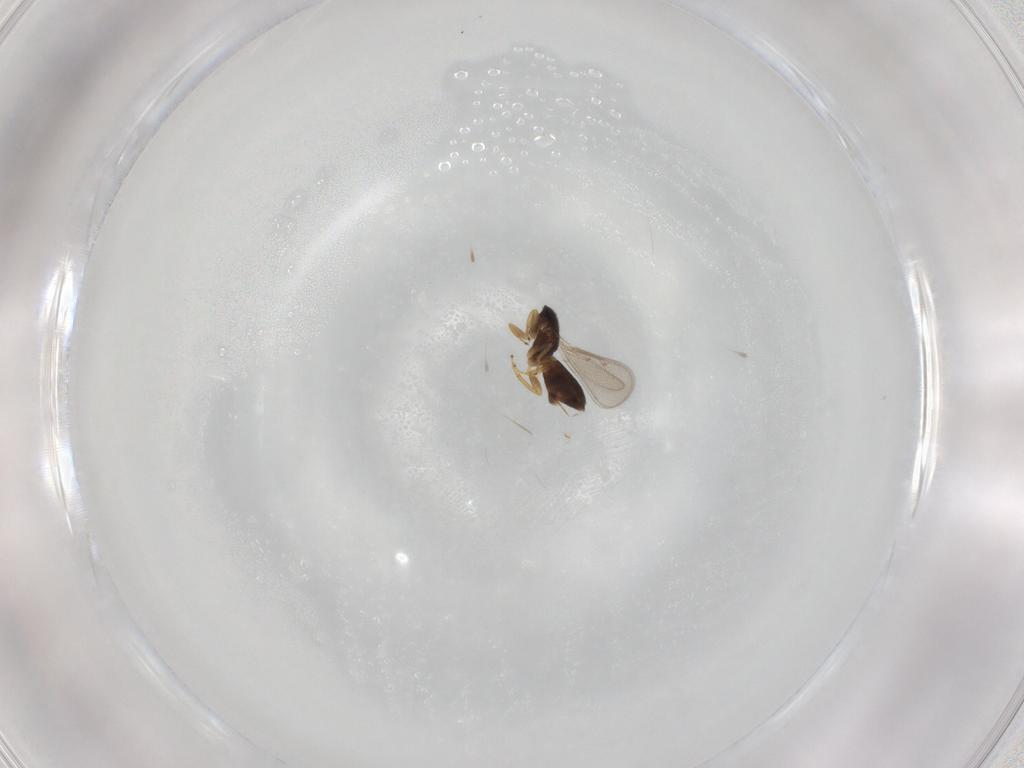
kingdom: Animalia
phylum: Arthropoda
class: Insecta
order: Hymenoptera
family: Eulophidae
